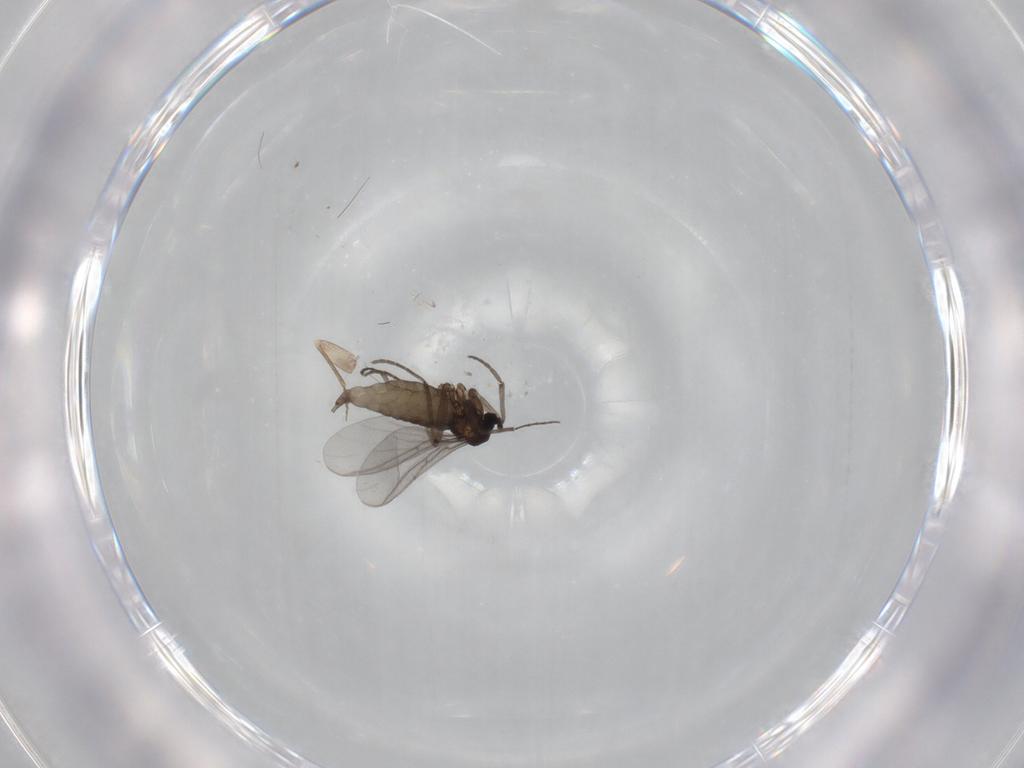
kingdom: Animalia
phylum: Arthropoda
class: Insecta
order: Diptera
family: Sciaridae
